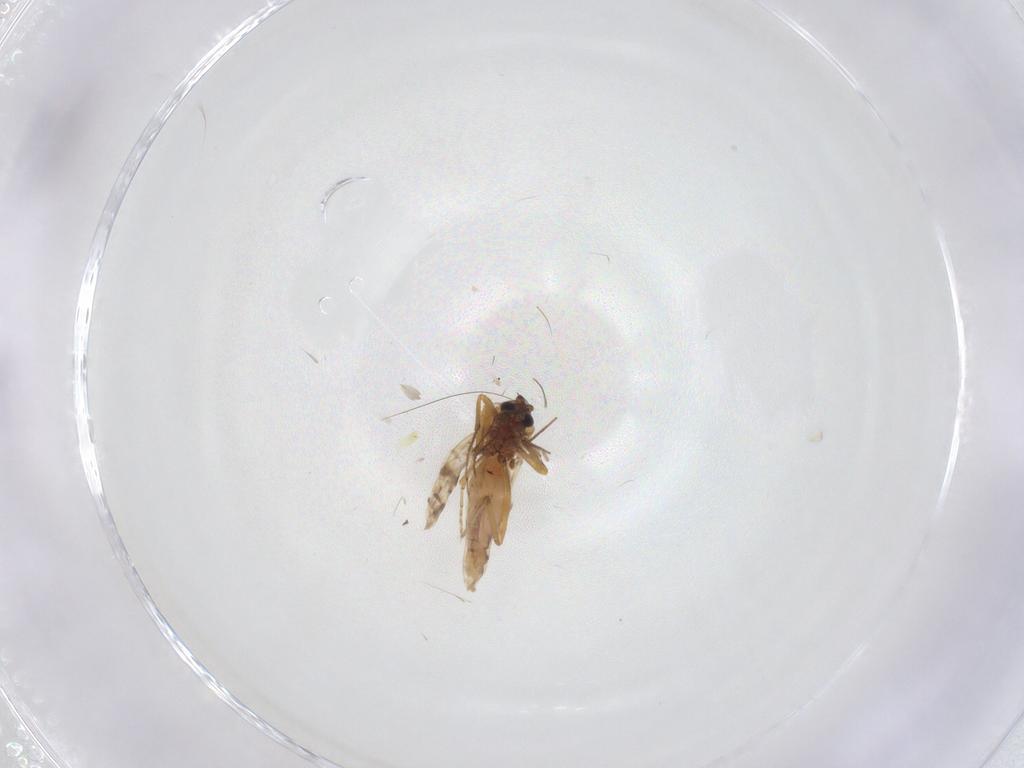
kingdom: Animalia
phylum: Arthropoda
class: Insecta
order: Diptera
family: Ceratopogonidae
